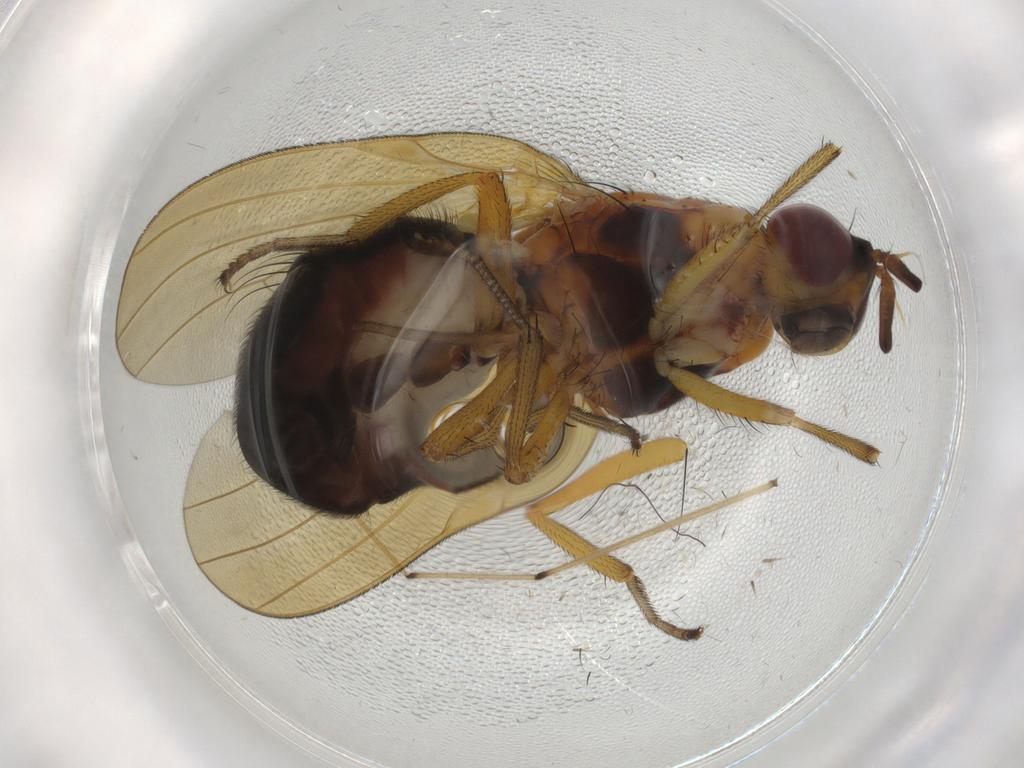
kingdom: Animalia
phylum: Arthropoda
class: Insecta
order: Diptera
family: Lauxaniidae
